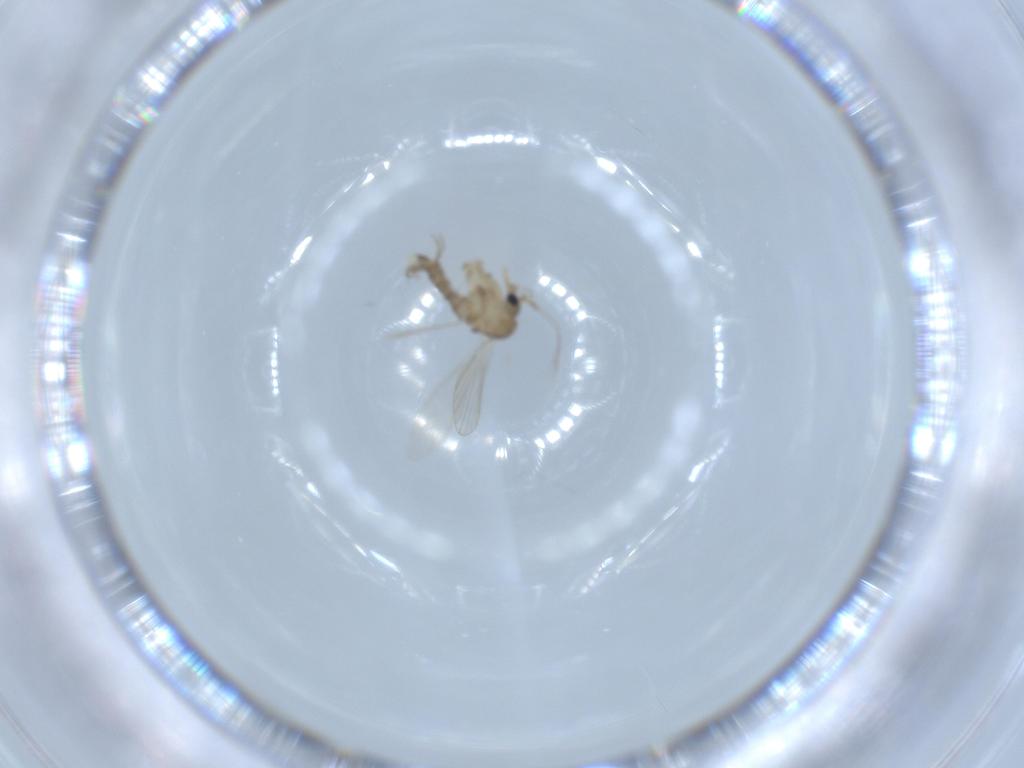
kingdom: Animalia
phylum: Arthropoda
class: Insecta
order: Diptera
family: Psychodidae
